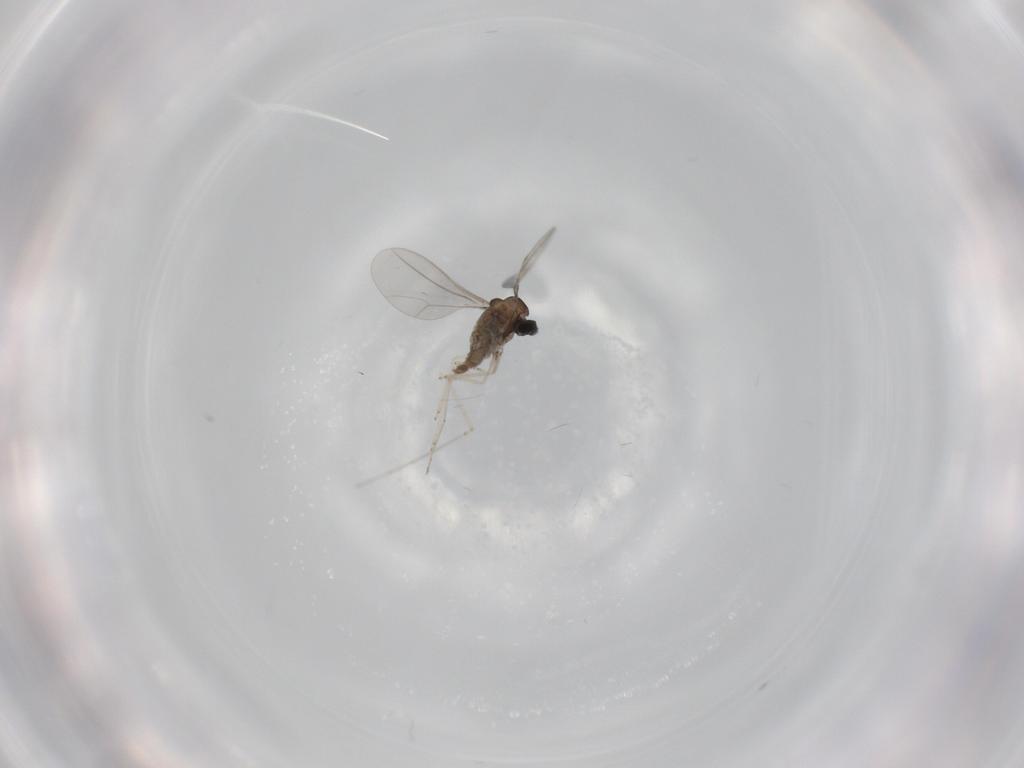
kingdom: Animalia
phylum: Arthropoda
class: Insecta
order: Diptera
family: Cecidomyiidae
